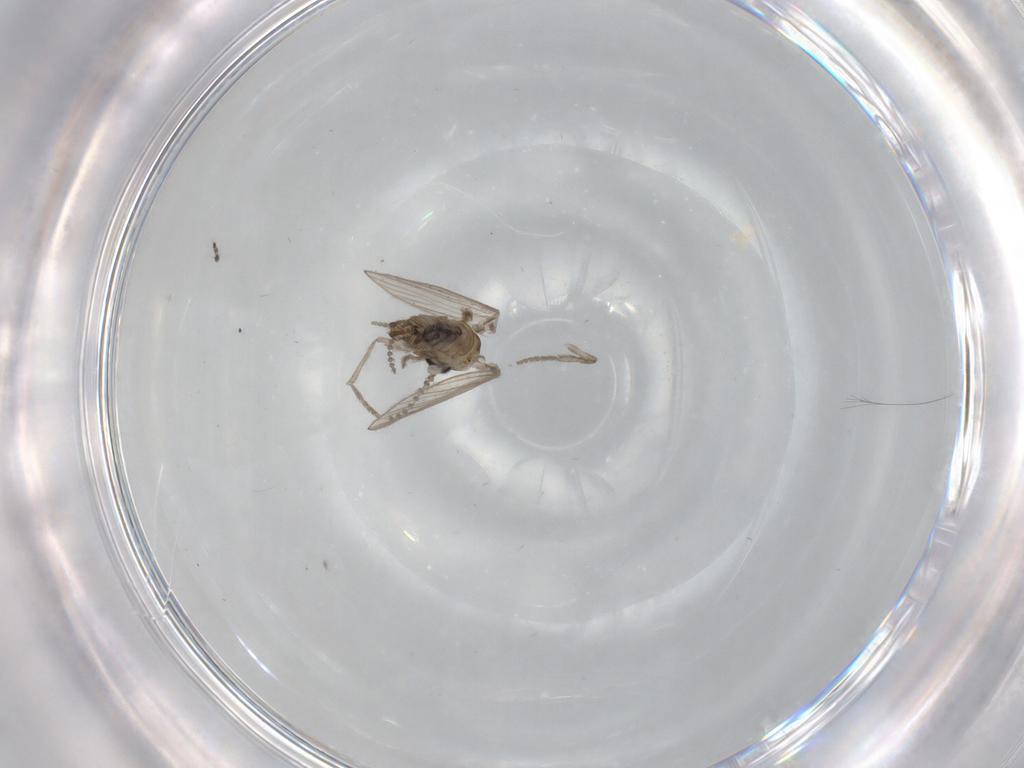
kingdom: Animalia
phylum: Arthropoda
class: Insecta
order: Diptera
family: Psychodidae
